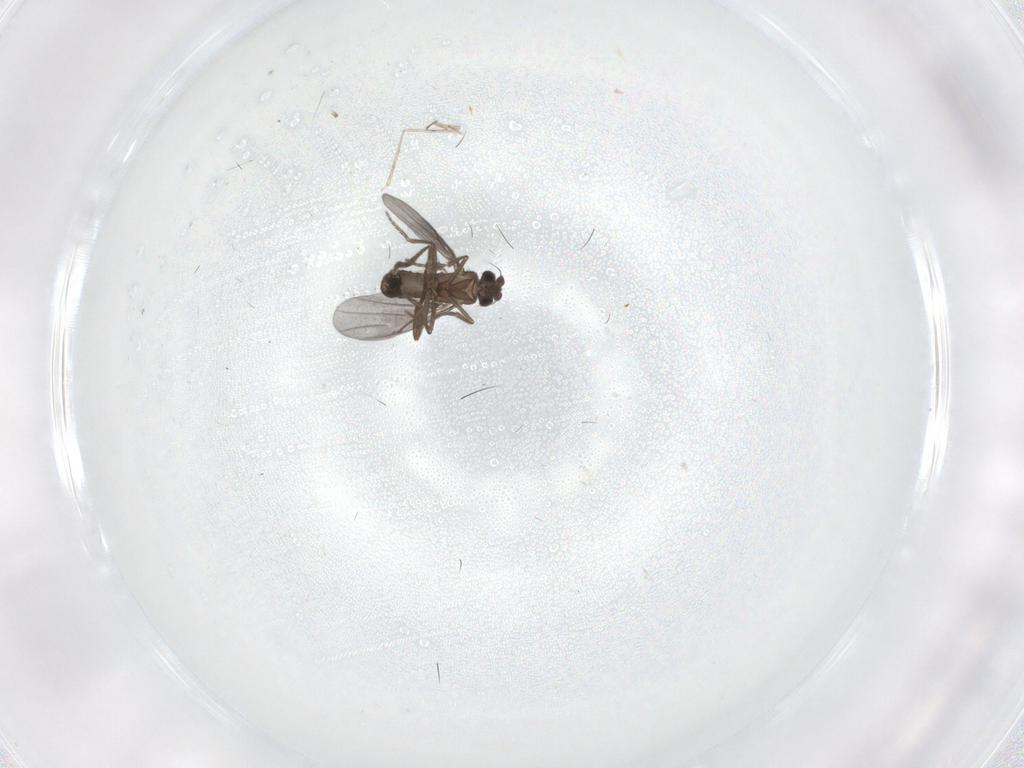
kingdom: Animalia
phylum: Arthropoda
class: Insecta
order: Diptera
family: Phoridae
